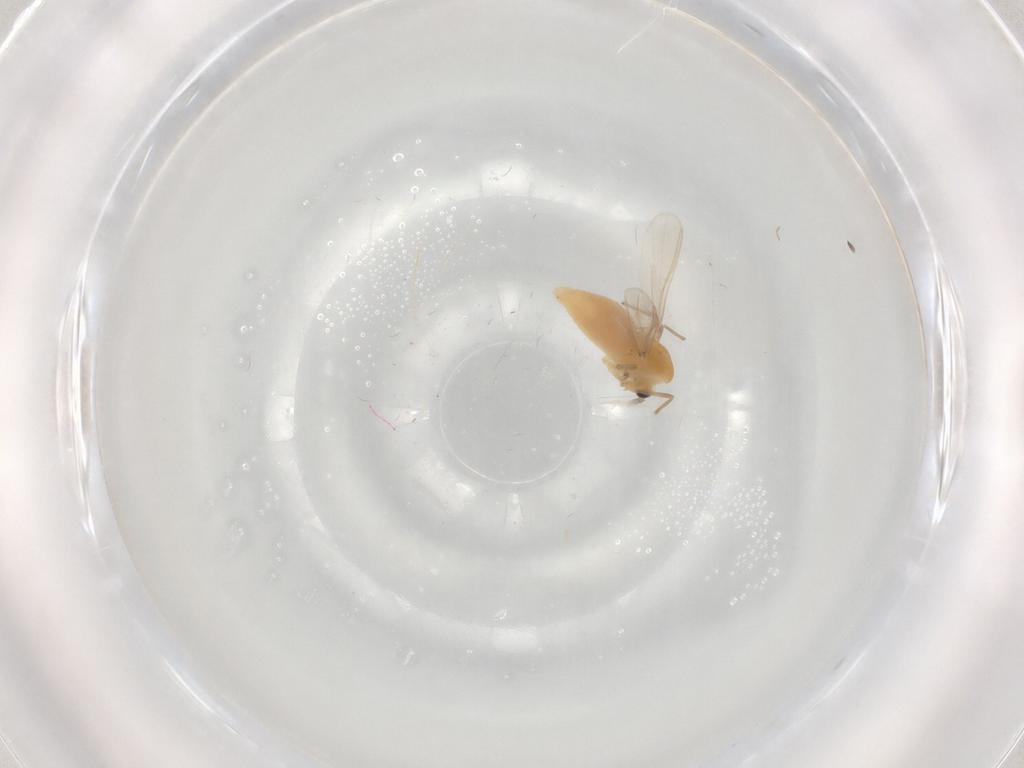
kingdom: Animalia
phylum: Arthropoda
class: Insecta
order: Diptera
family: Chironomidae
